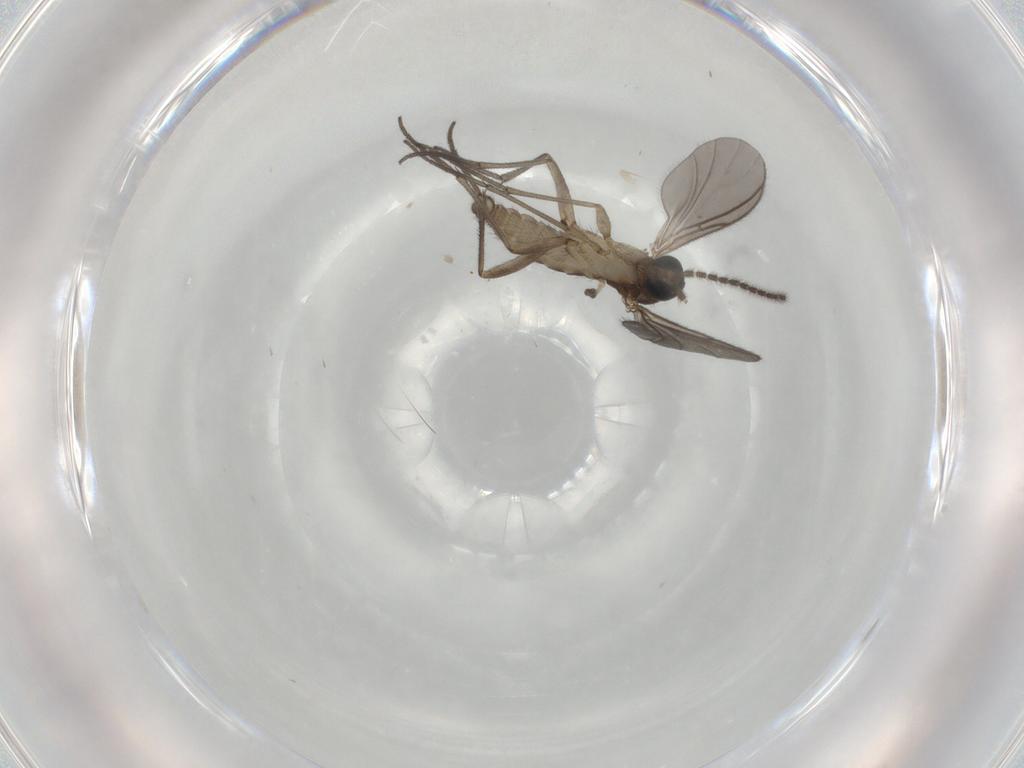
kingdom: Animalia
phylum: Arthropoda
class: Insecta
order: Diptera
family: Sciaridae
